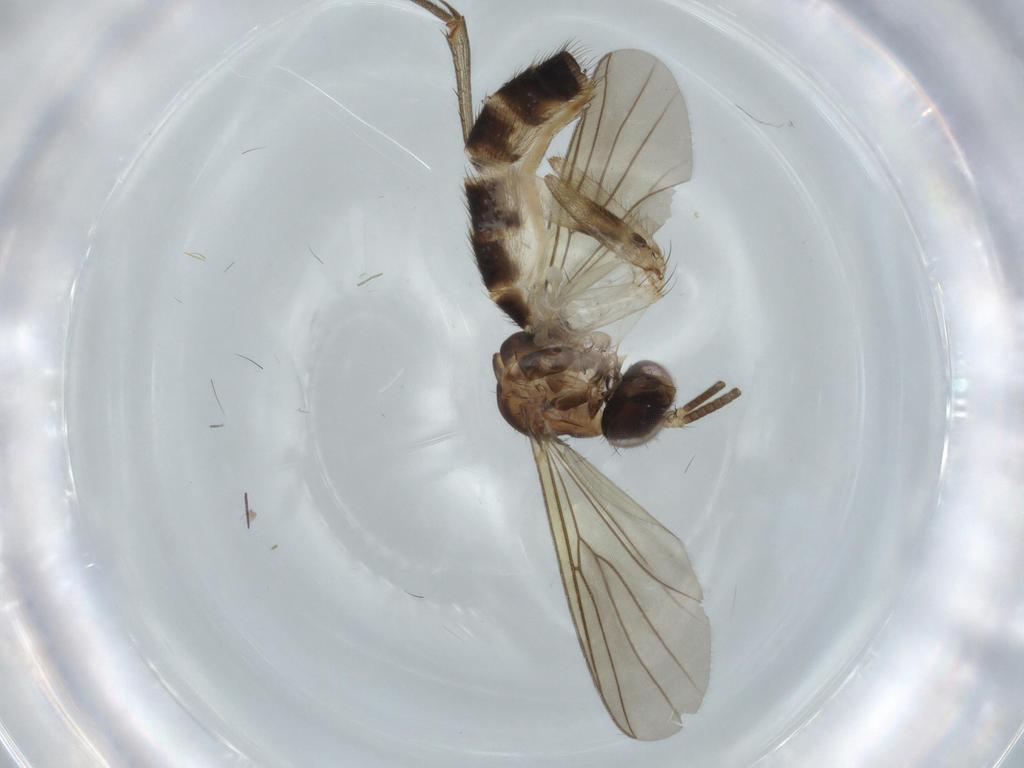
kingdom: Animalia
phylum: Arthropoda
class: Insecta
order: Diptera
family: Mycetophilidae
